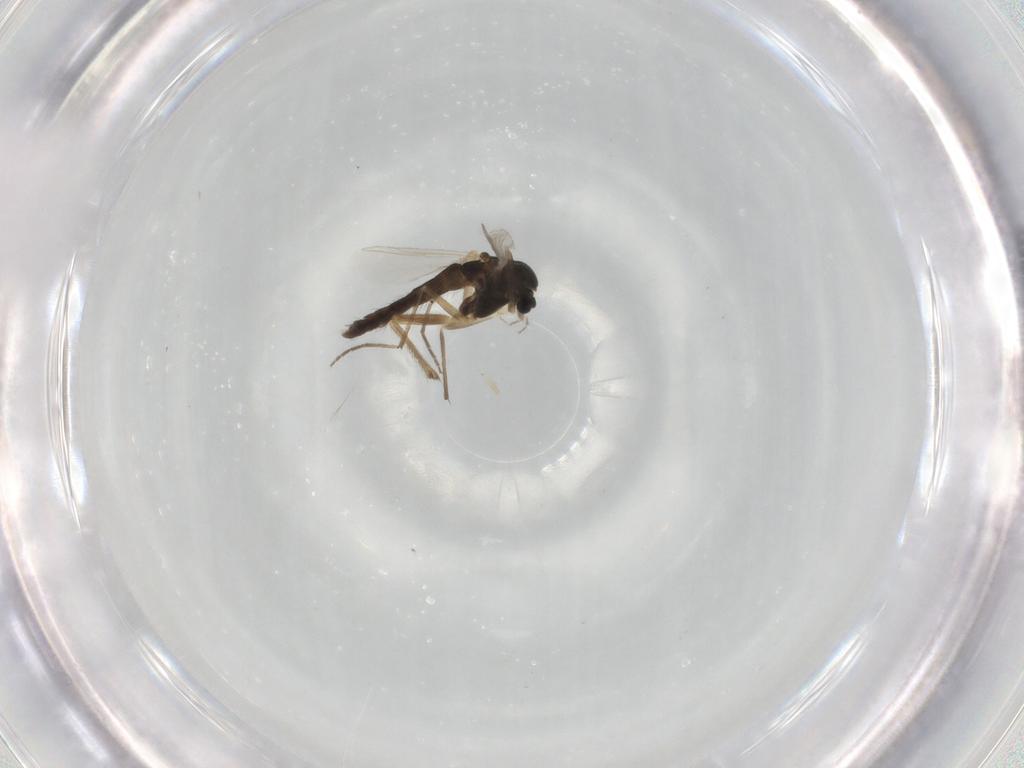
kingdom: Animalia
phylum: Arthropoda
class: Insecta
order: Diptera
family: Chironomidae
